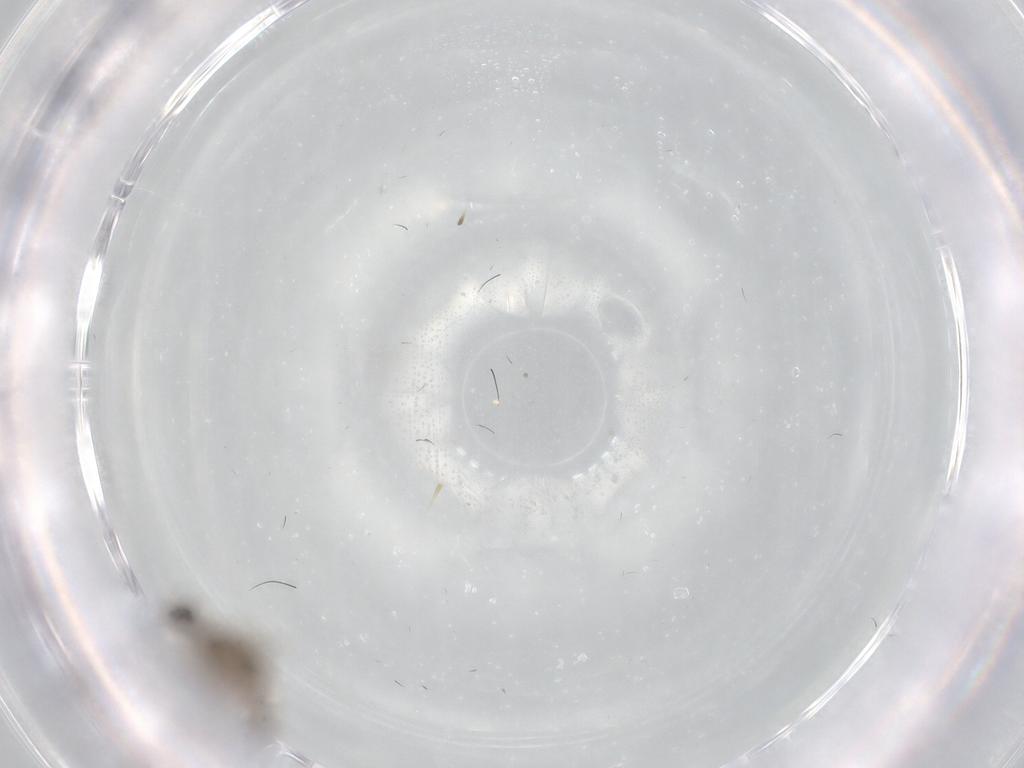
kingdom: Animalia
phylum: Arthropoda
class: Insecta
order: Diptera
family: Ceratopogonidae
